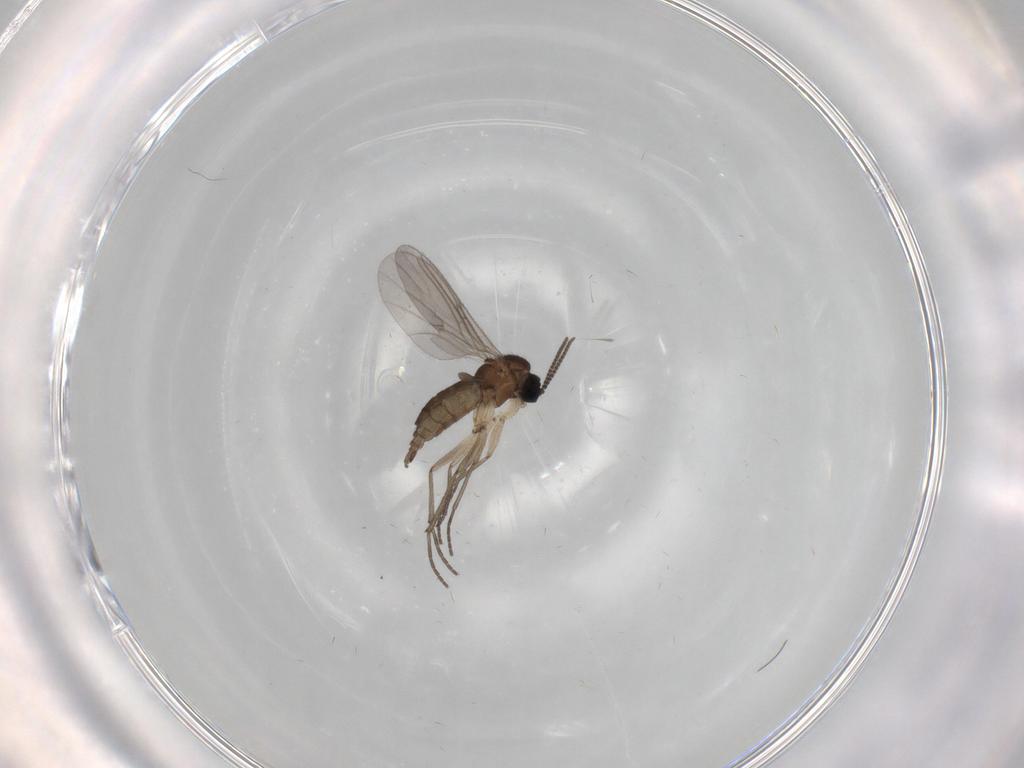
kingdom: Animalia
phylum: Arthropoda
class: Insecta
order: Diptera
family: Sciaridae
